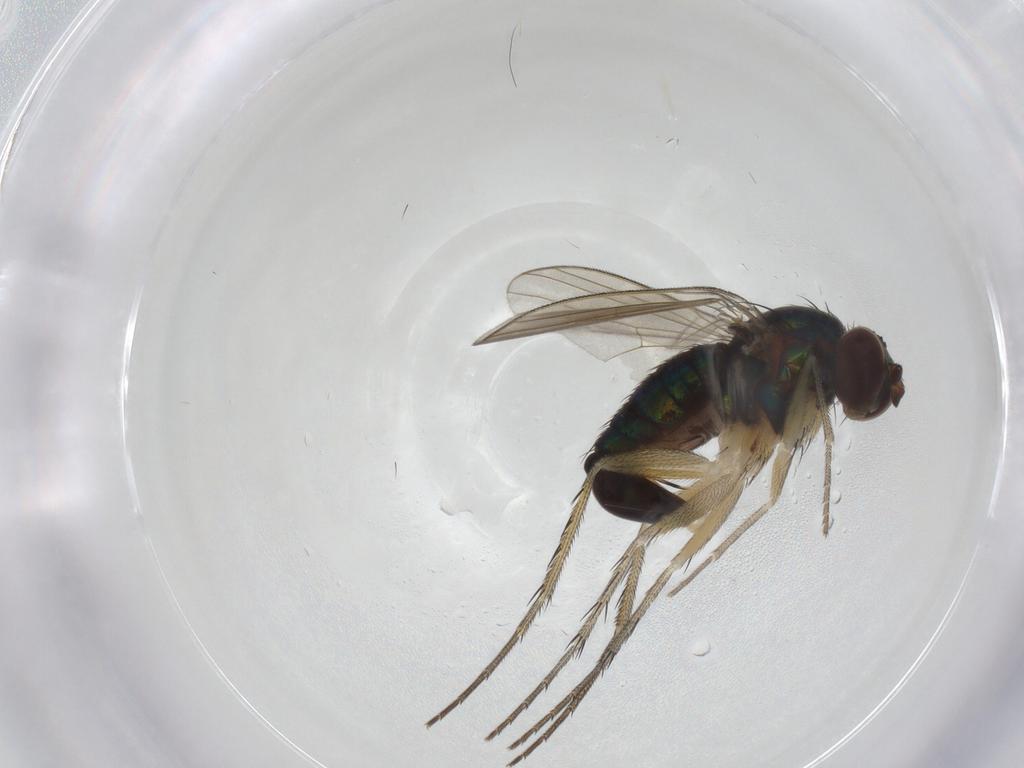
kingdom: Animalia
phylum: Arthropoda
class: Insecta
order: Diptera
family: Dolichopodidae
